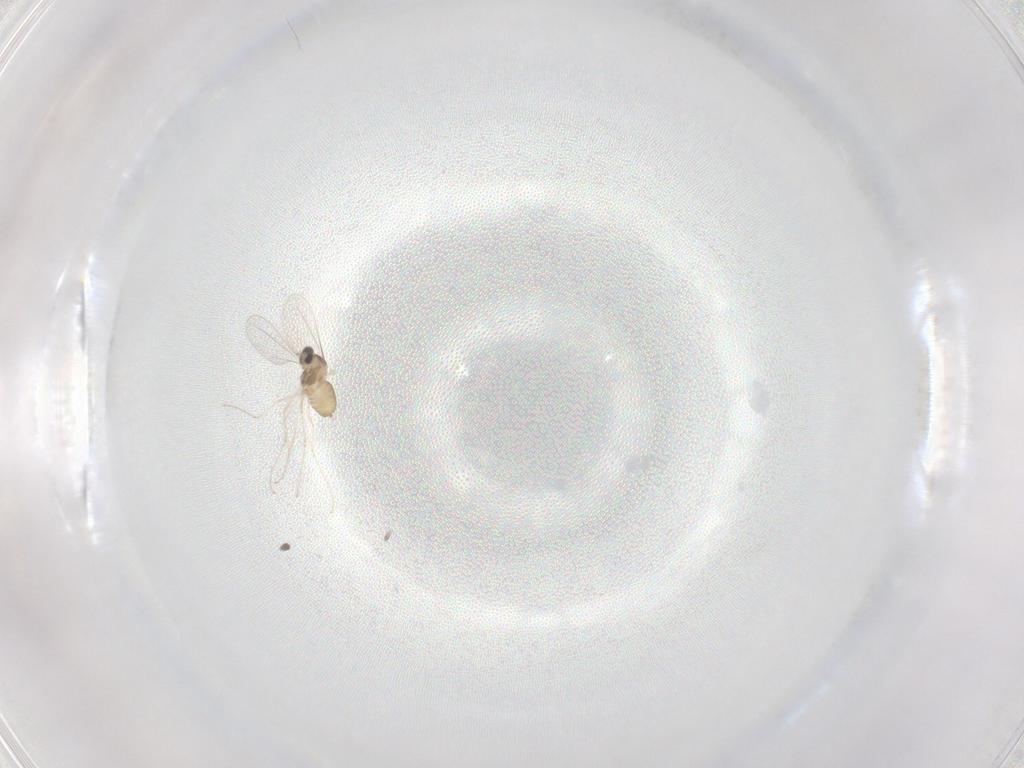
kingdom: Animalia
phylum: Arthropoda
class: Insecta
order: Diptera
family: Cecidomyiidae
